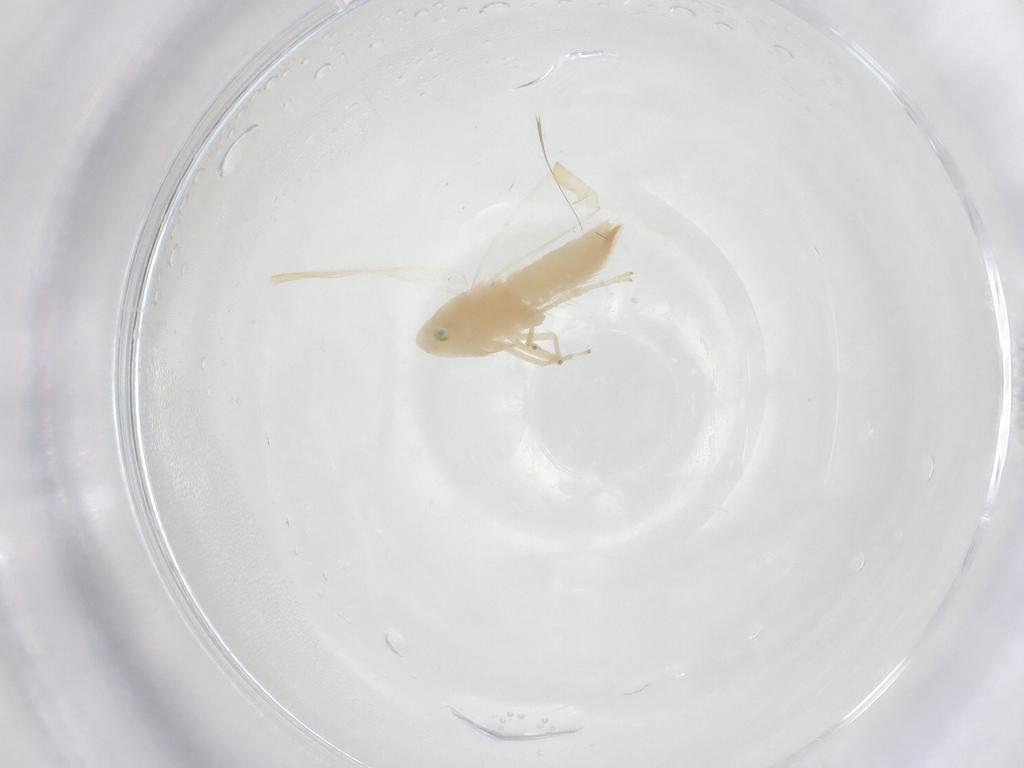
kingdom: Animalia
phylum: Arthropoda
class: Insecta
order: Hemiptera
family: Cicadellidae
